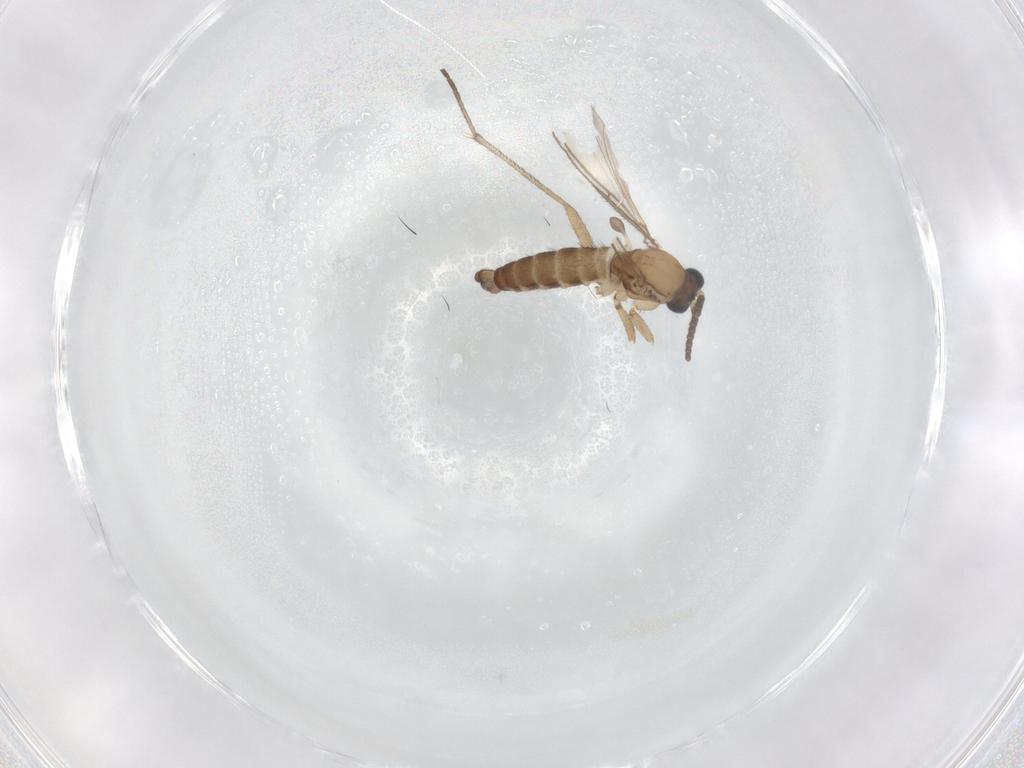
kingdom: Animalia
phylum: Arthropoda
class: Insecta
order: Diptera
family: Sciaridae
